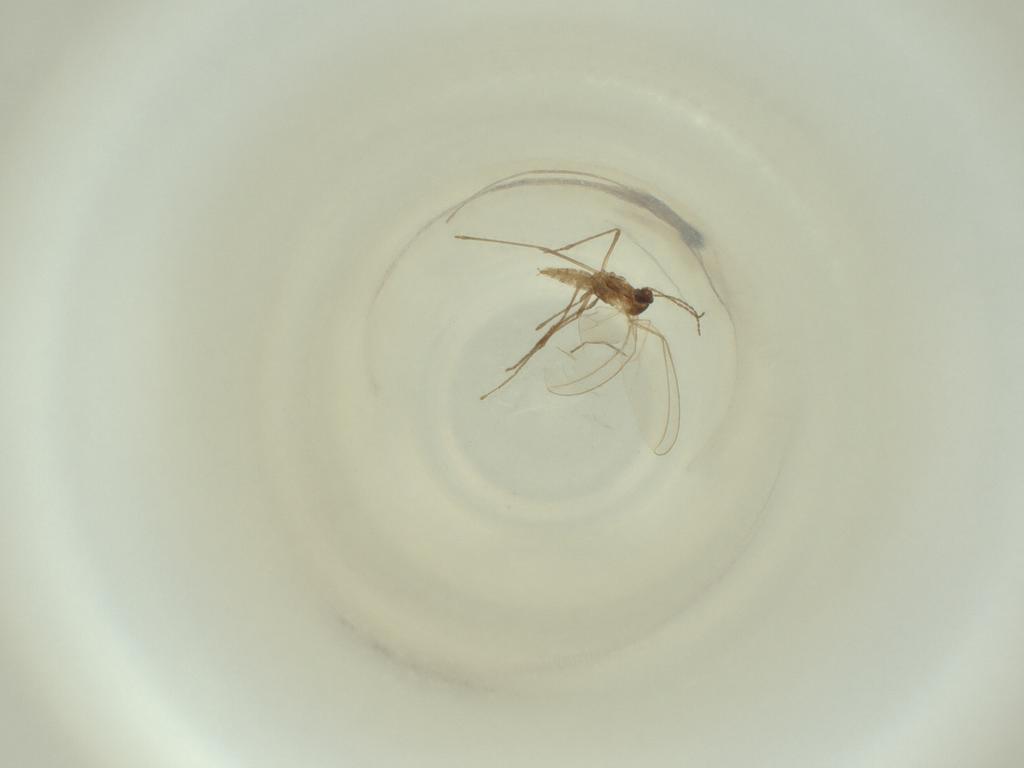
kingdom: Animalia
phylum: Arthropoda
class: Insecta
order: Diptera
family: Cecidomyiidae
